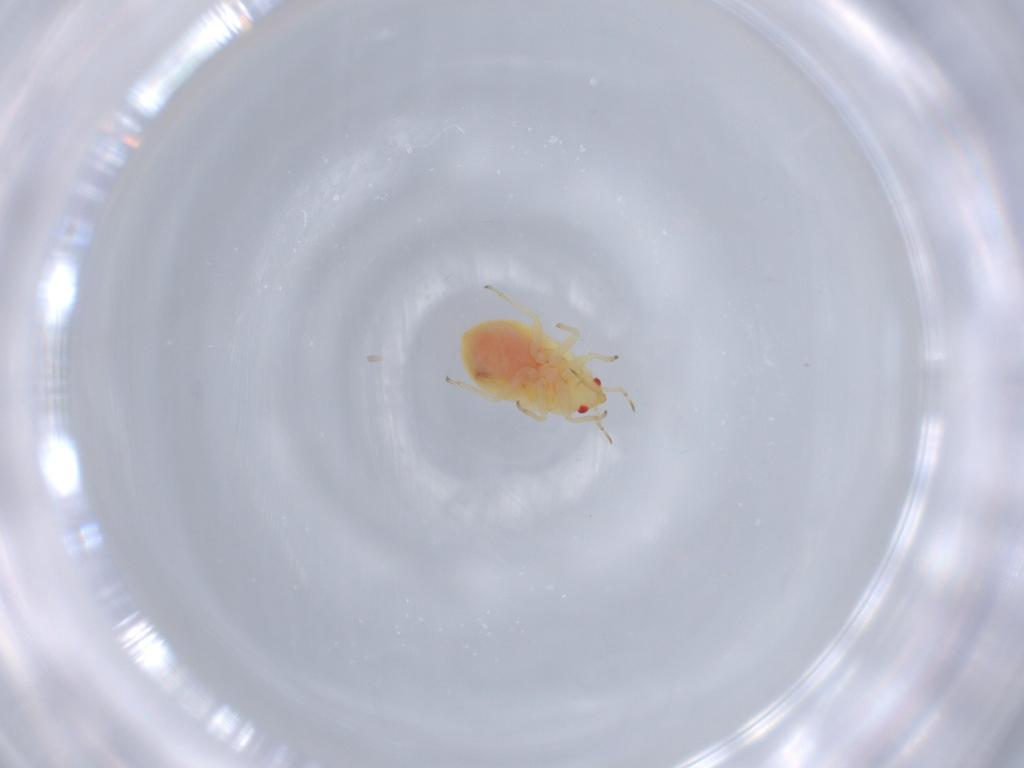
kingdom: Animalia
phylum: Arthropoda
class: Insecta
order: Hemiptera
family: Anthocoridae
